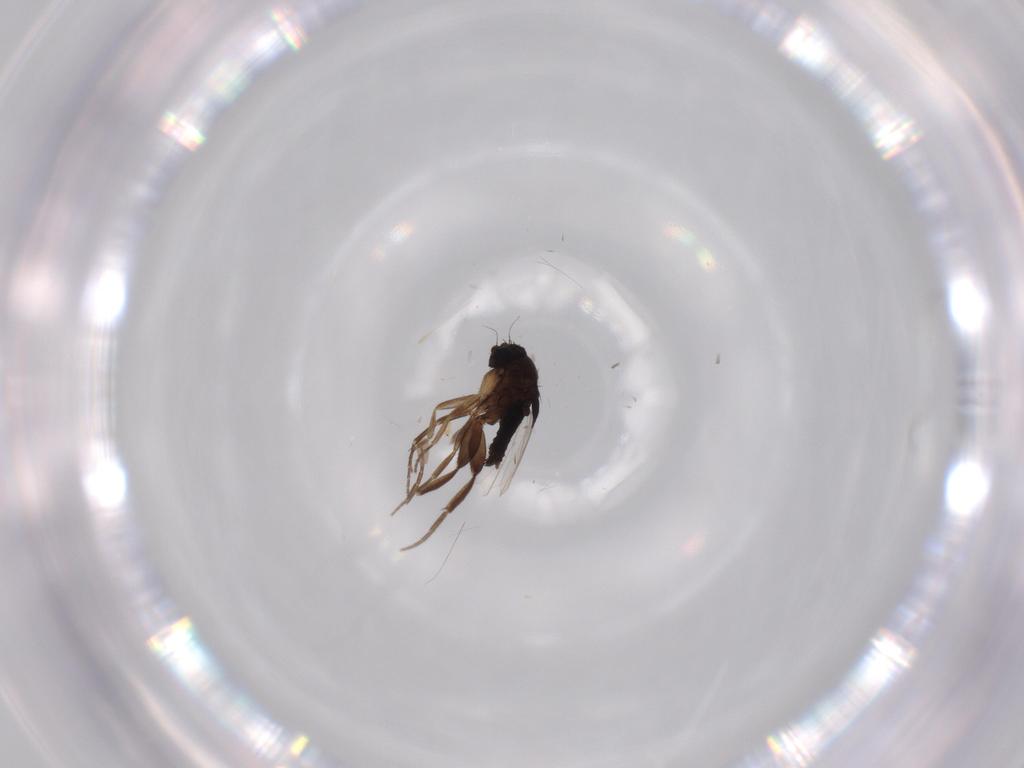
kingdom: Animalia
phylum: Arthropoda
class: Insecta
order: Diptera
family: Phoridae
